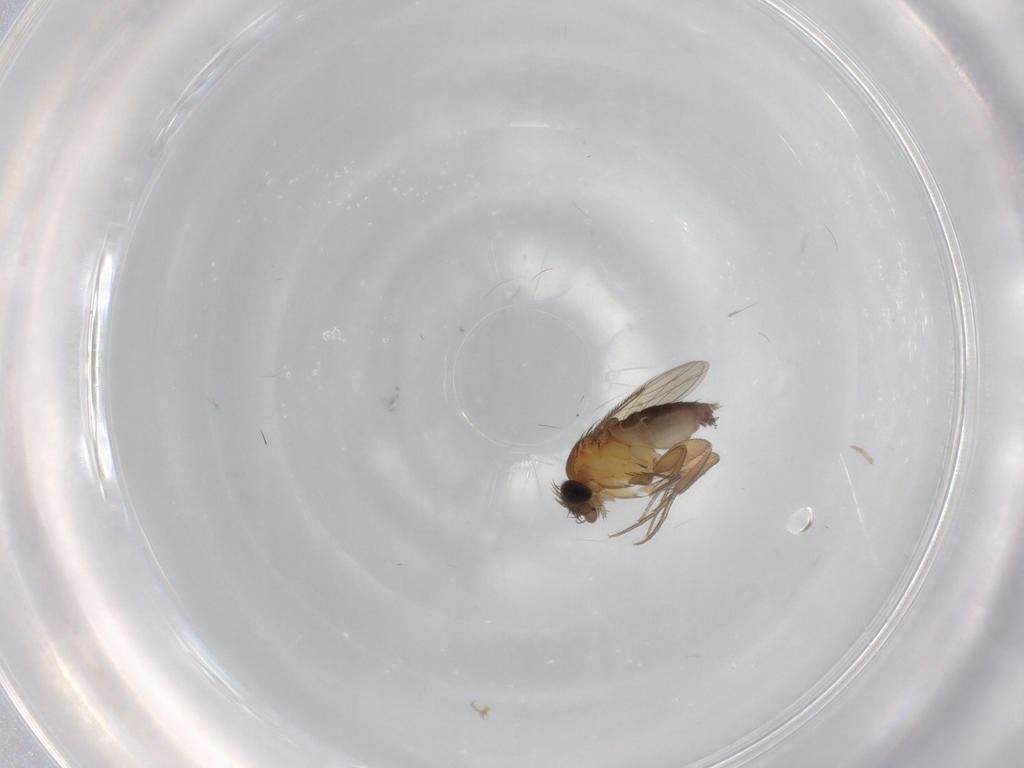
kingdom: Animalia
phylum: Arthropoda
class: Insecta
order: Diptera
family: Phoridae
